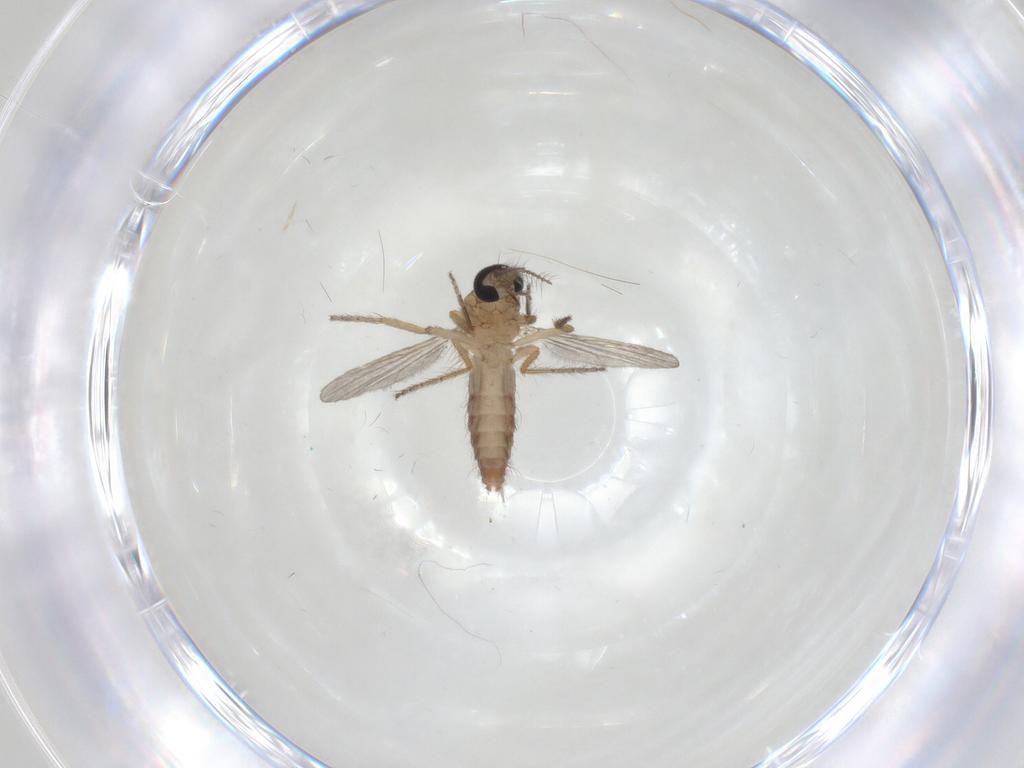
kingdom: Animalia
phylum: Arthropoda
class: Insecta
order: Diptera
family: Ceratopogonidae
